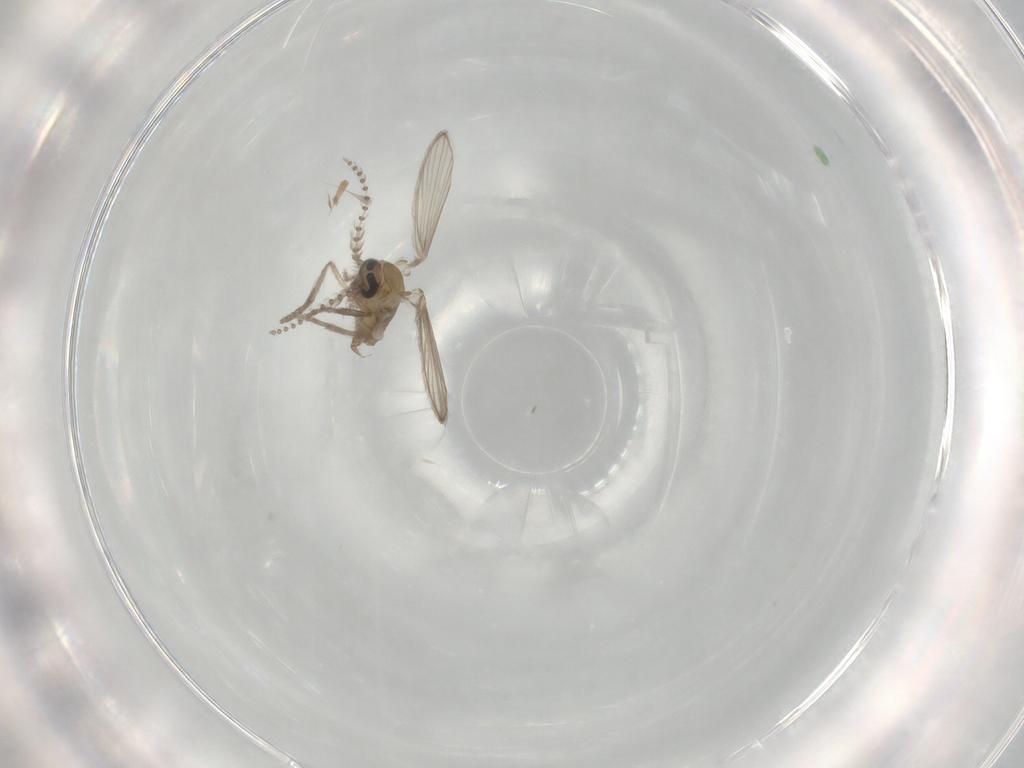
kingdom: Animalia
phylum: Arthropoda
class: Insecta
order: Diptera
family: Psychodidae
